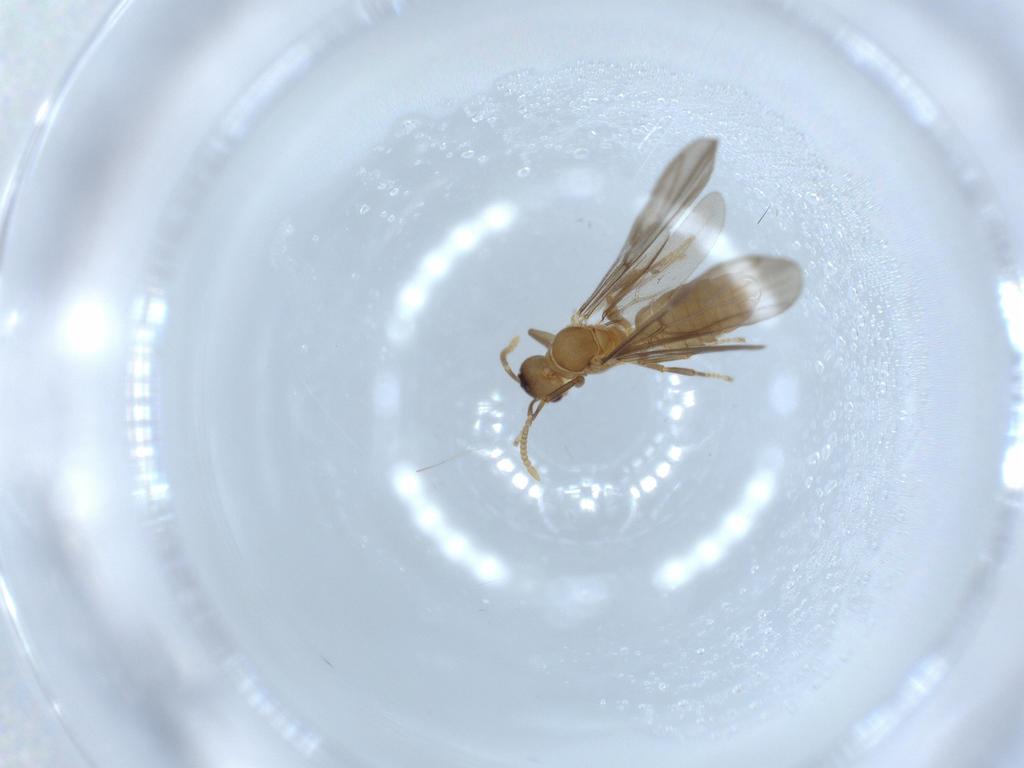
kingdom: Animalia
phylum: Arthropoda
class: Insecta
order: Hymenoptera
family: Formicidae
